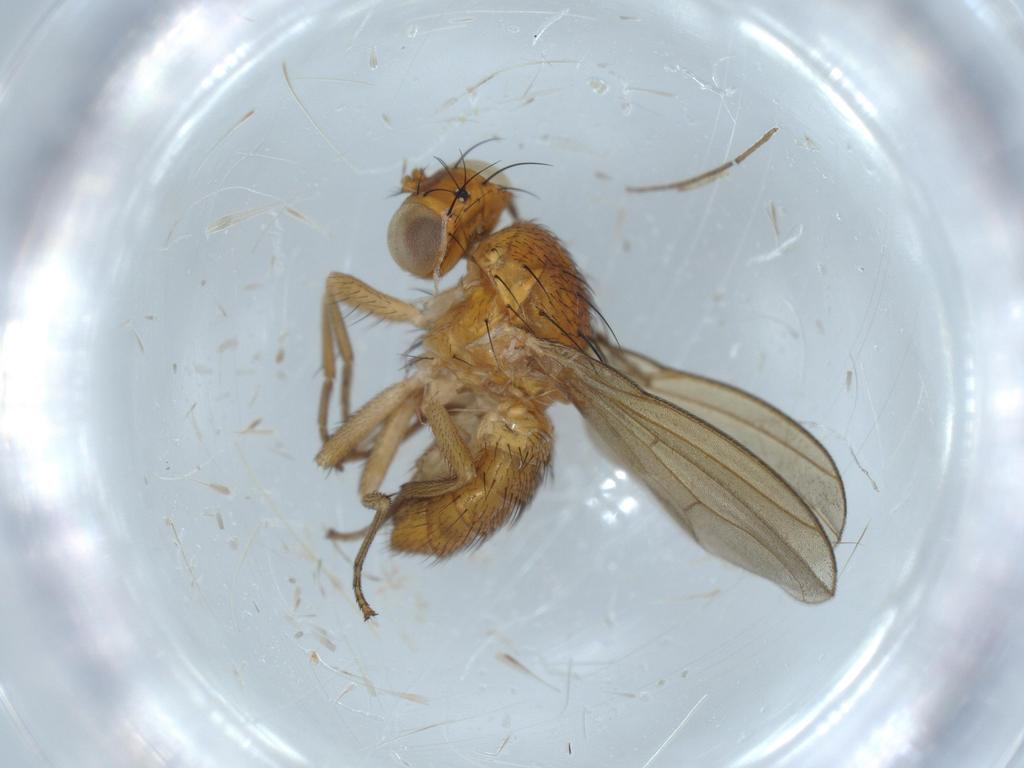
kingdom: Animalia
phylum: Arthropoda
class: Insecta
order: Diptera
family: Lauxaniidae
